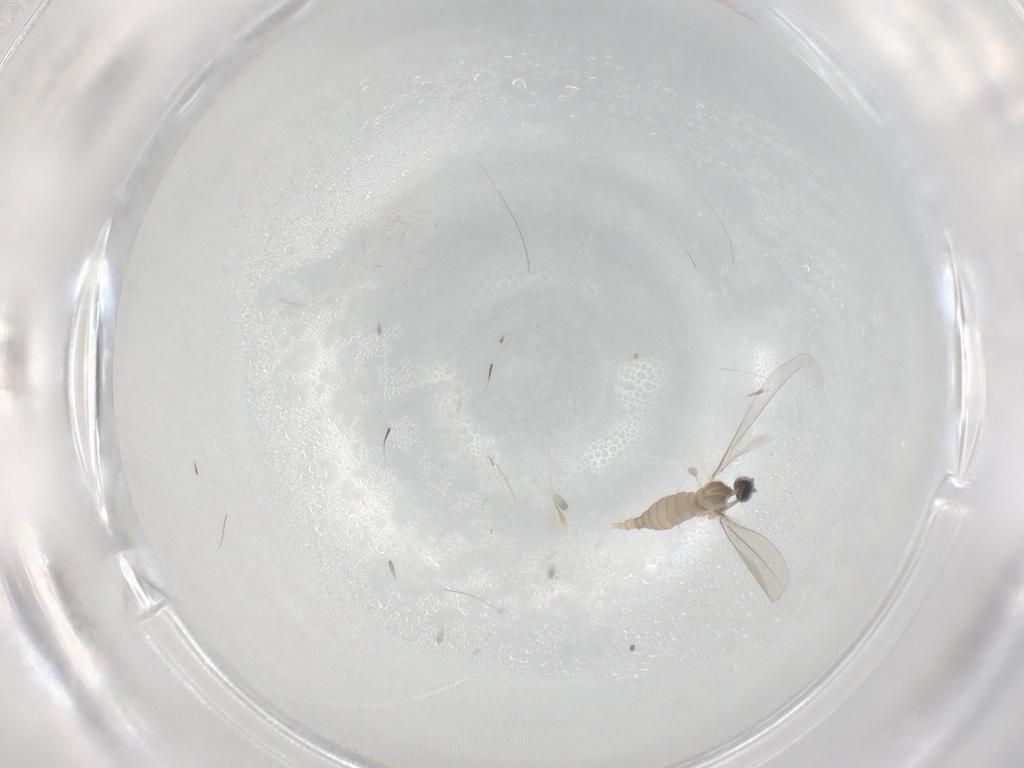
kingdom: Animalia
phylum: Arthropoda
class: Insecta
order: Diptera
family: Cecidomyiidae
